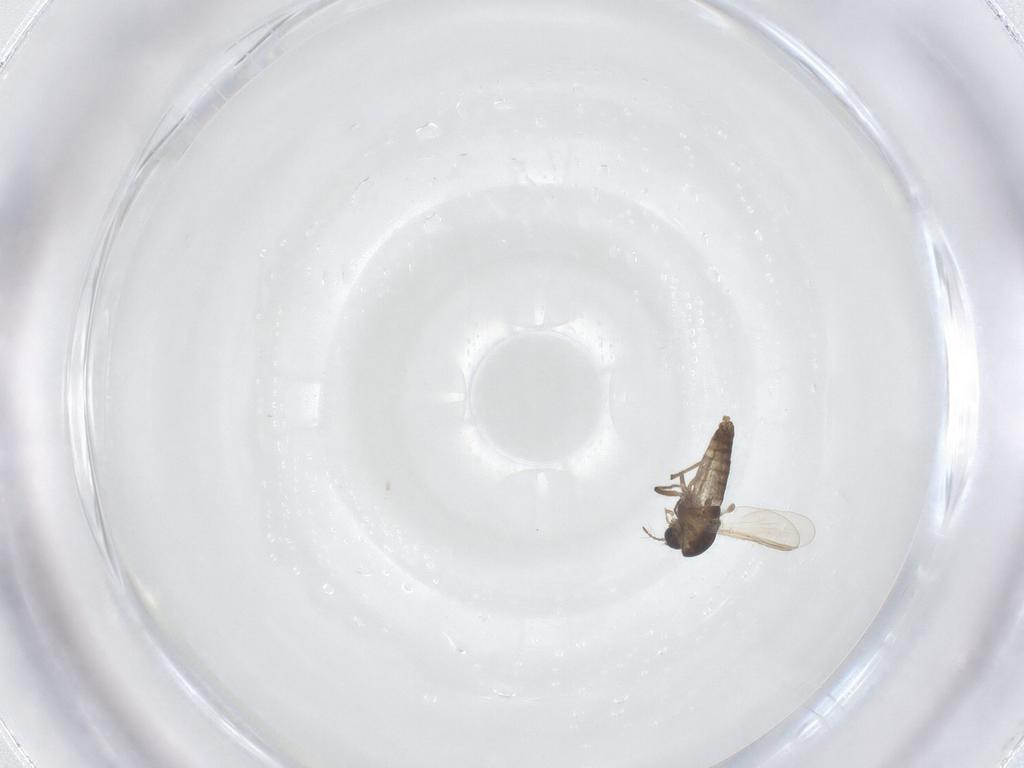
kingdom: Animalia
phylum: Arthropoda
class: Insecta
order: Diptera
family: Chironomidae
